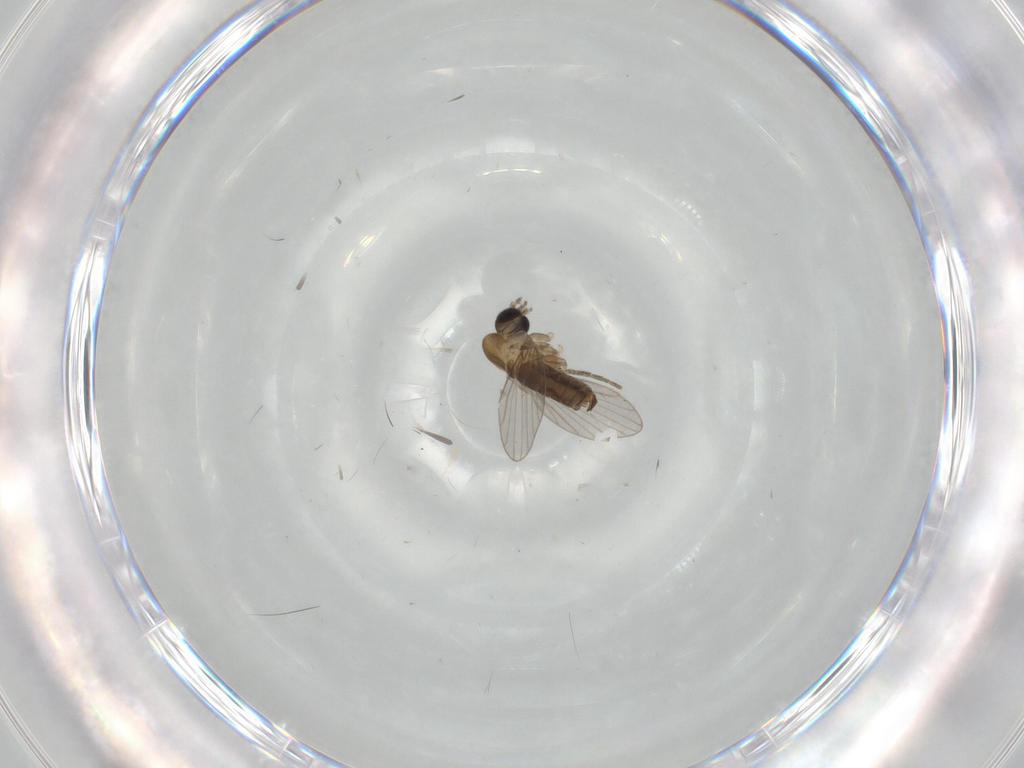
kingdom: Animalia
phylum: Arthropoda
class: Insecta
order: Diptera
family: Psychodidae
